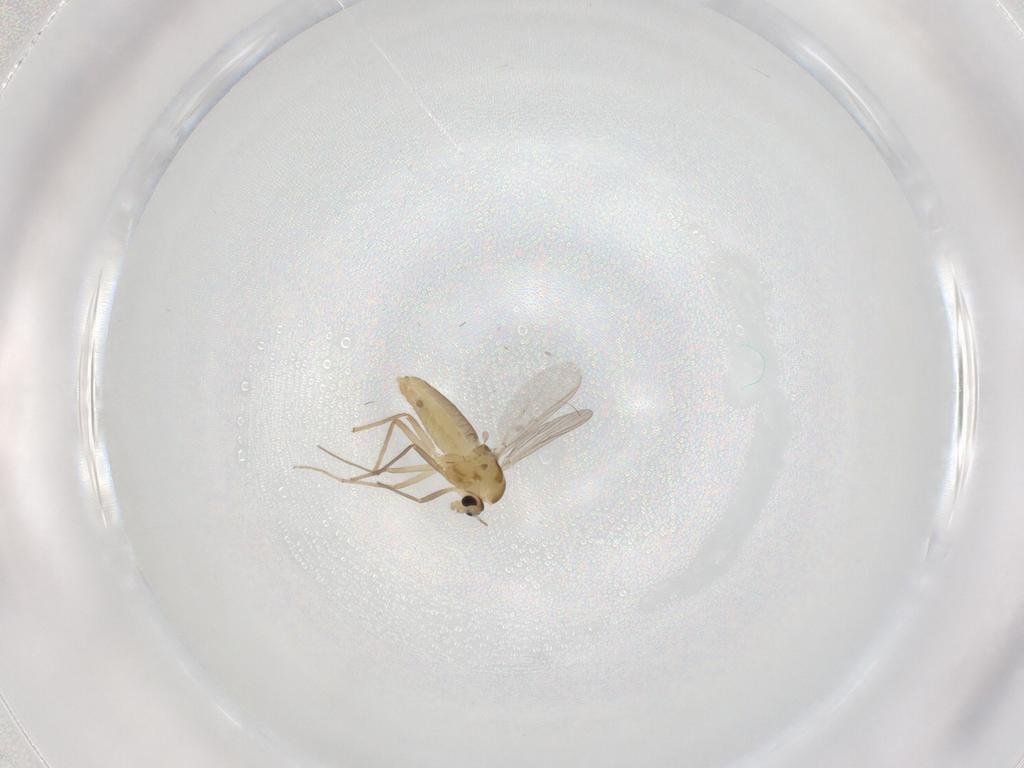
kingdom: Animalia
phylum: Arthropoda
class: Insecta
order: Diptera
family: Chironomidae
